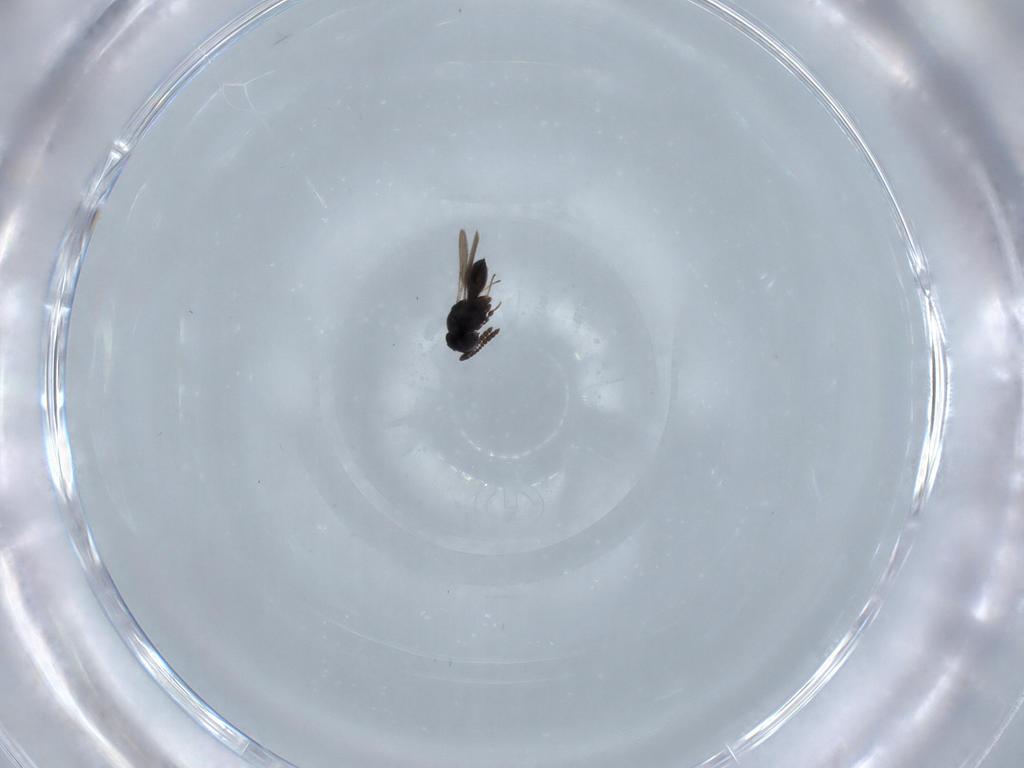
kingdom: Animalia
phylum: Arthropoda
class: Insecta
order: Hymenoptera
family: Scelionidae
